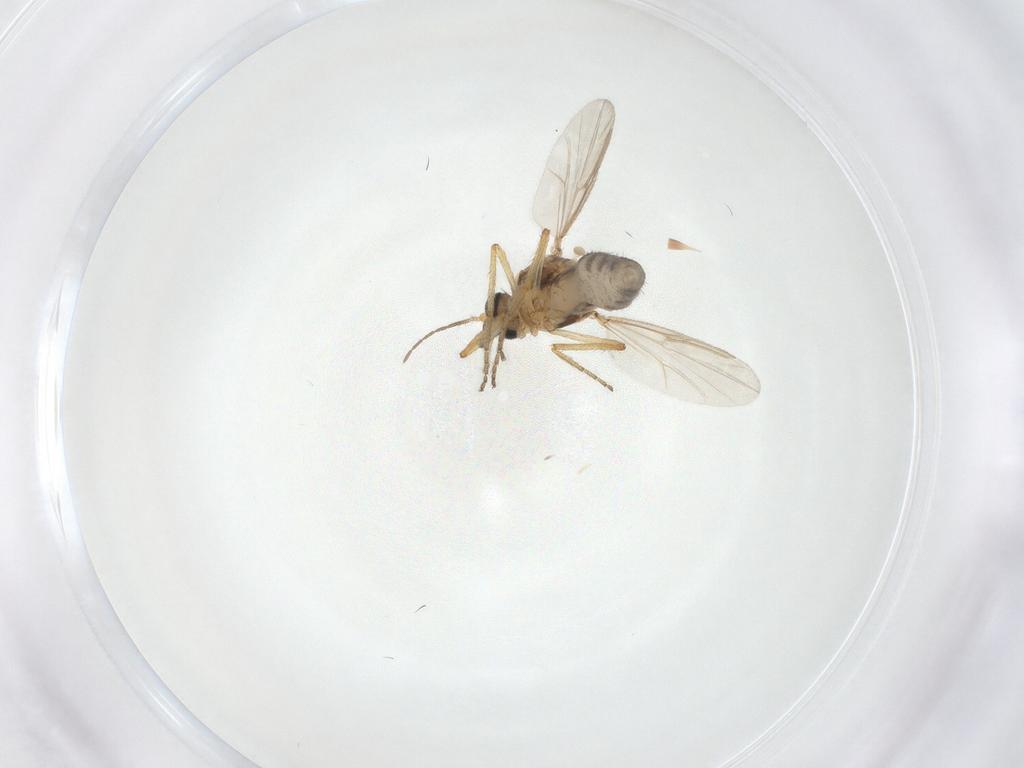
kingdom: Animalia
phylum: Arthropoda
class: Insecta
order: Diptera
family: Ceratopogonidae
